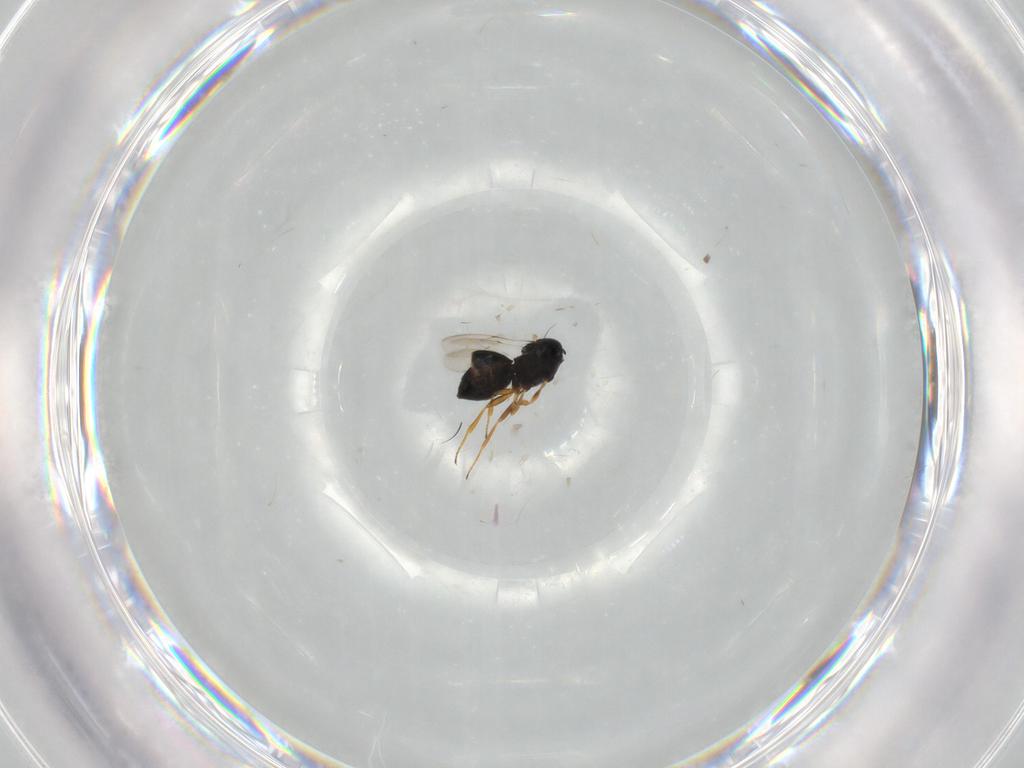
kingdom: Animalia
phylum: Arthropoda
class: Insecta
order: Hymenoptera
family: Scelionidae
